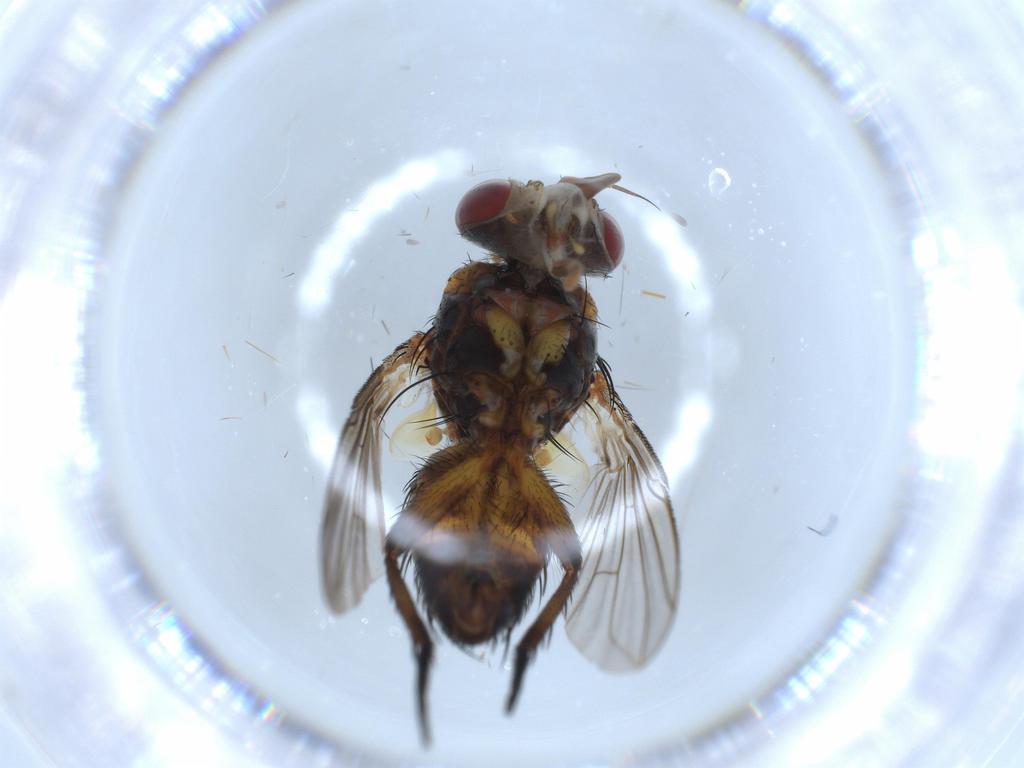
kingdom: Animalia
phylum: Arthropoda
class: Insecta
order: Diptera
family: Tachinidae
